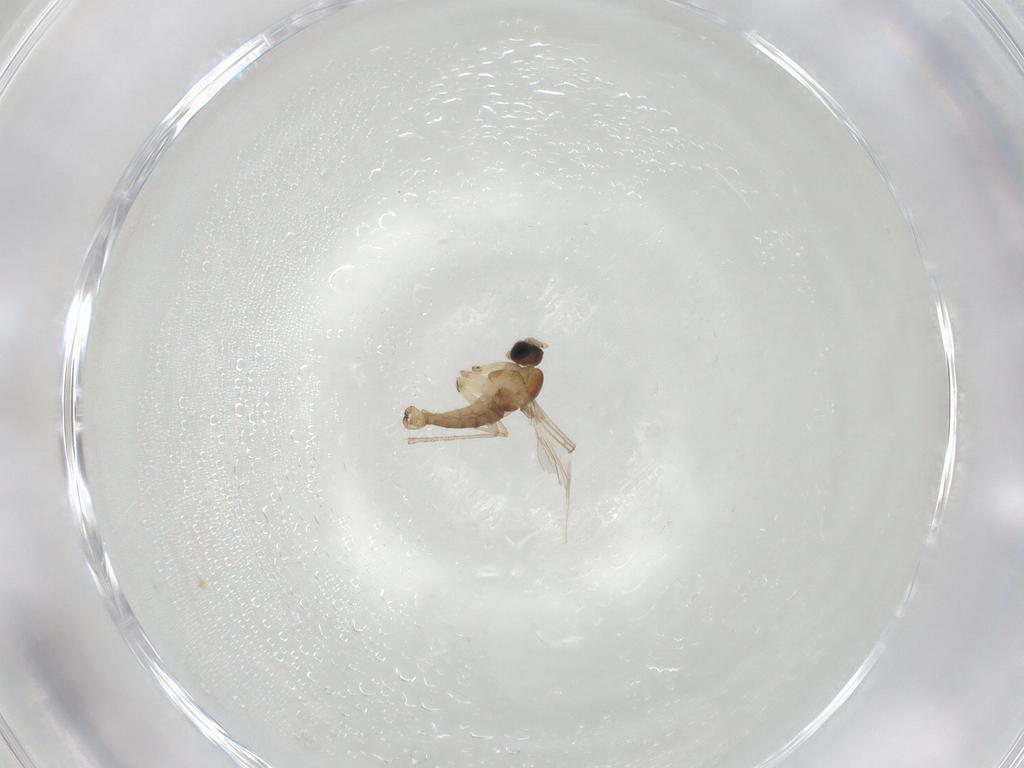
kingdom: Animalia
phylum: Arthropoda
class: Insecta
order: Diptera
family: Sciaridae
